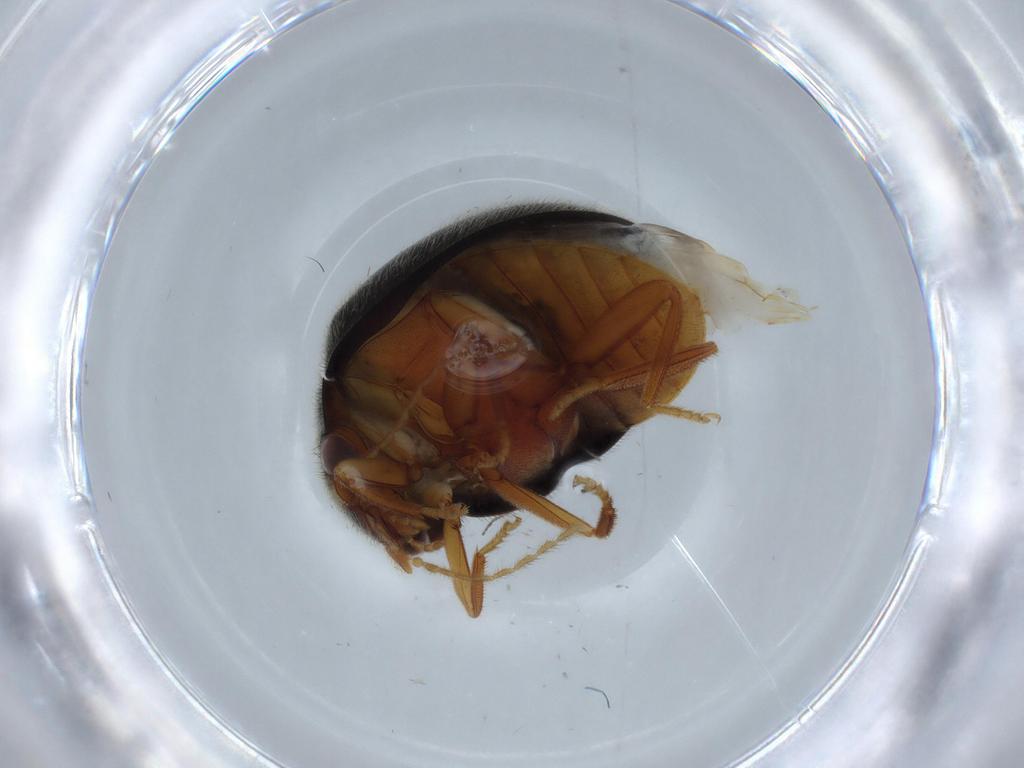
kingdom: Animalia
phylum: Arthropoda
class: Insecta
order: Coleoptera
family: Scirtidae
